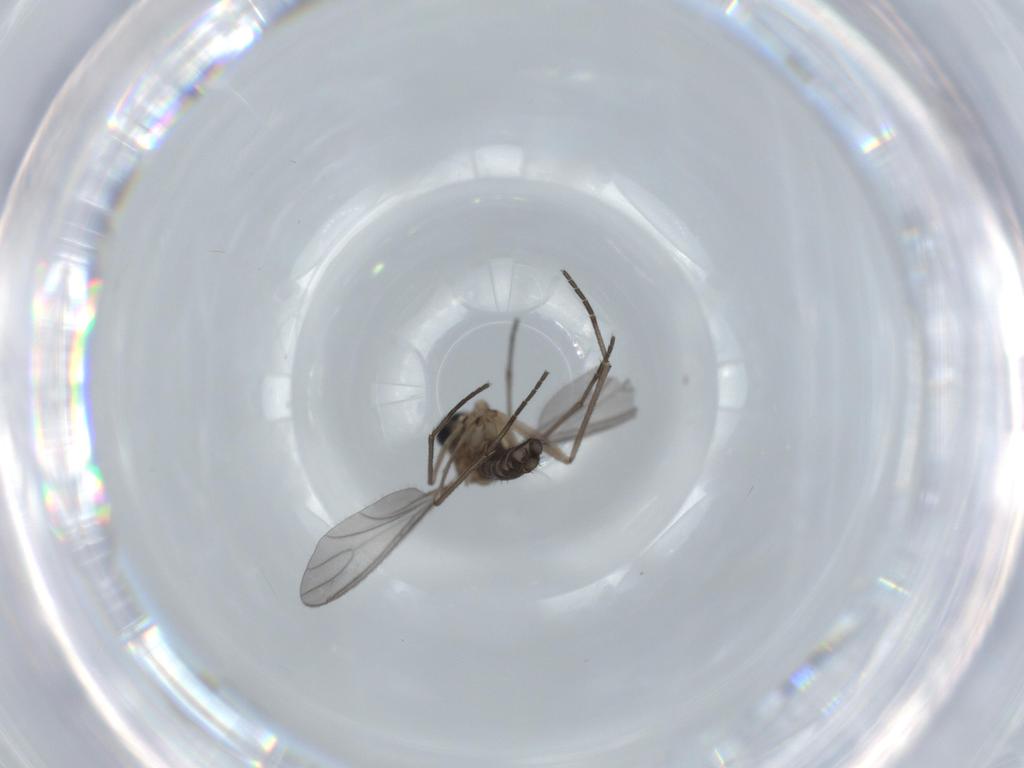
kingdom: Animalia
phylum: Arthropoda
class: Insecta
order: Diptera
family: Sciaridae
